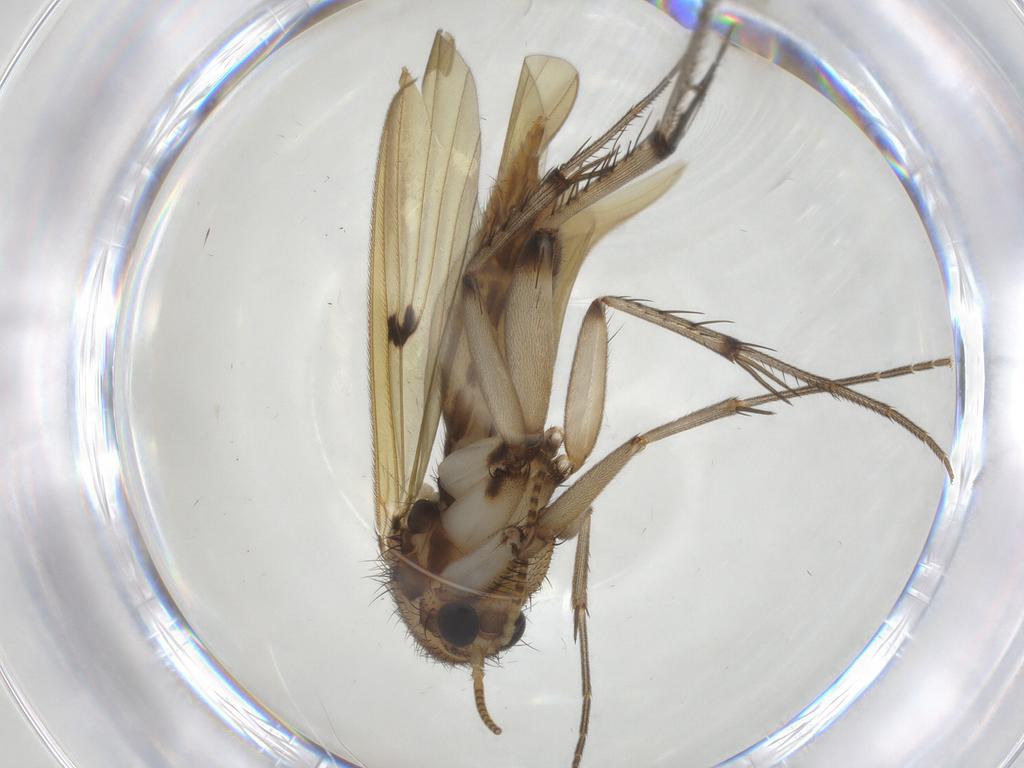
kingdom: Animalia
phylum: Arthropoda
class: Insecta
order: Diptera
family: Mycetophilidae
